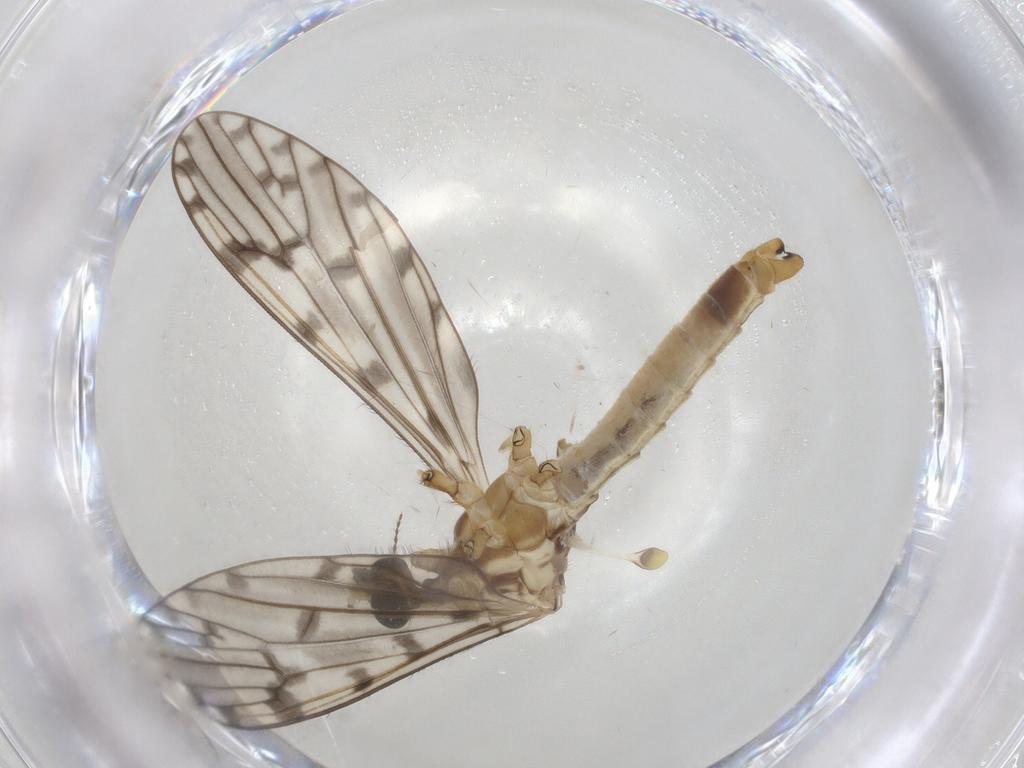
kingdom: Animalia
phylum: Arthropoda
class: Insecta
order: Diptera
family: Limoniidae
